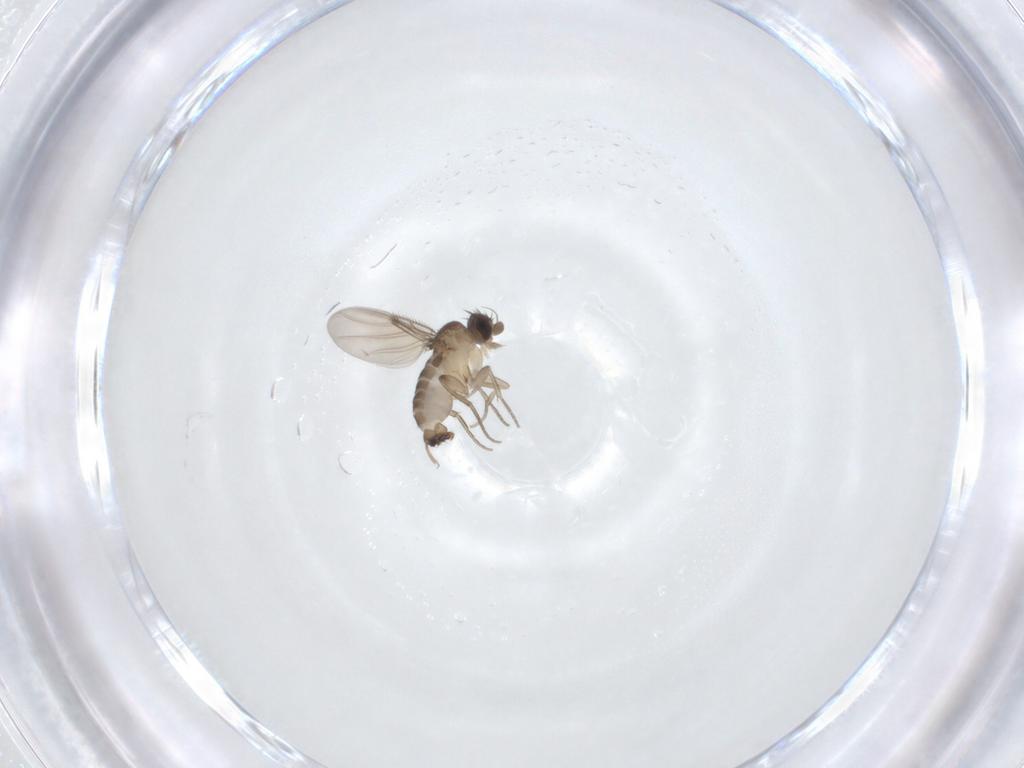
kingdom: Animalia
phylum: Arthropoda
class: Insecta
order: Diptera
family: Phoridae
